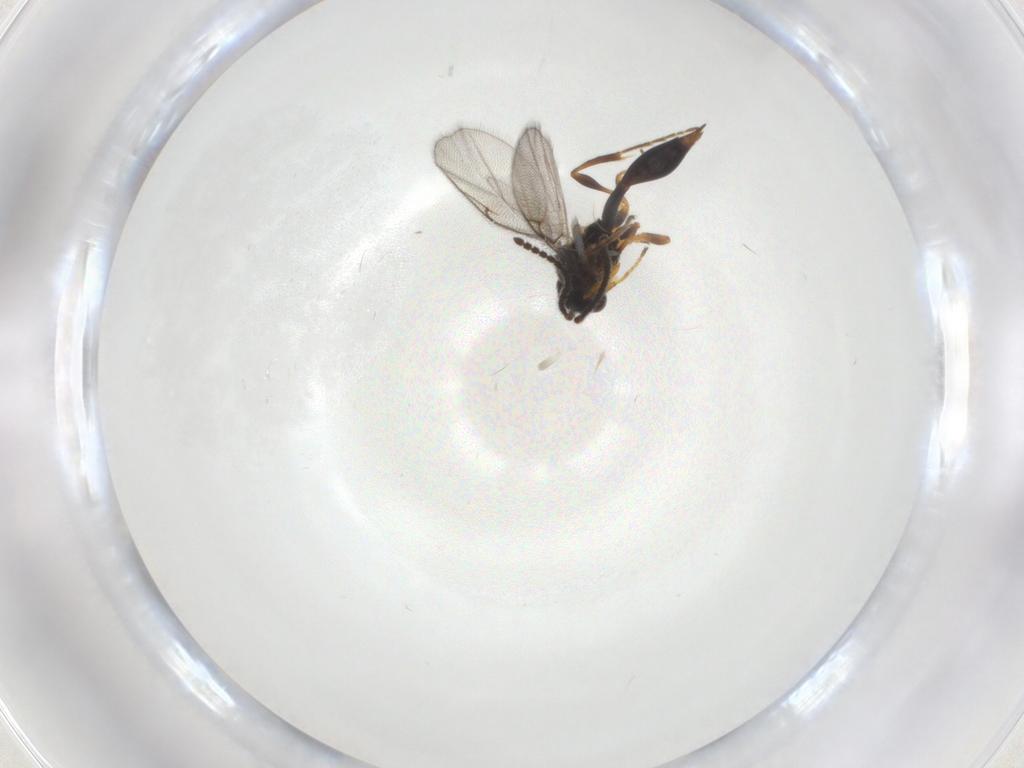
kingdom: Animalia
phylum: Arthropoda
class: Insecta
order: Hymenoptera
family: Diapriidae
